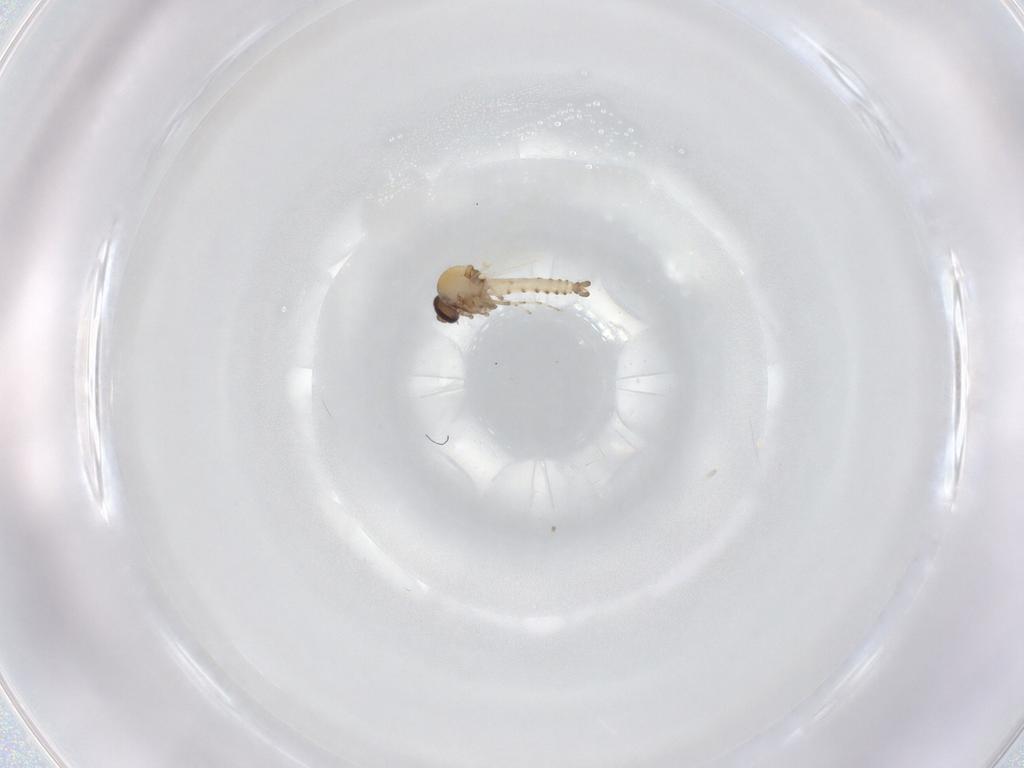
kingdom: Animalia
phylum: Arthropoda
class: Insecta
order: Diptera
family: Ceratopogonidae
